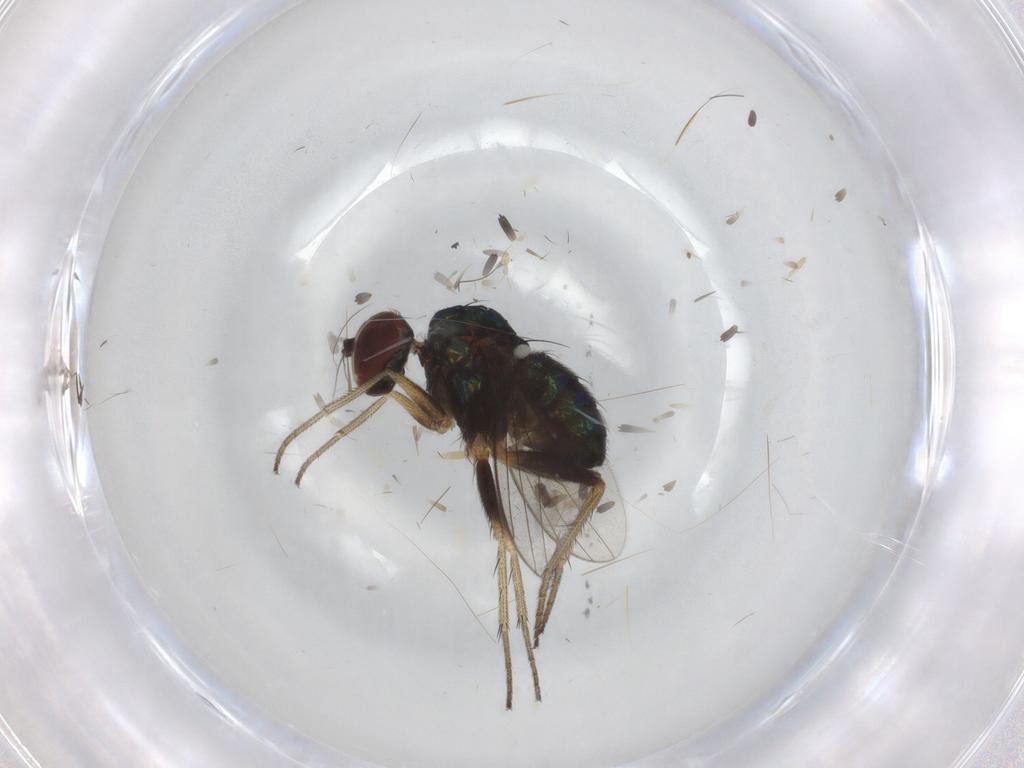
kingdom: Animalia
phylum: Arthropoda
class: Insecta
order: Diptera
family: Dolichopodidae
